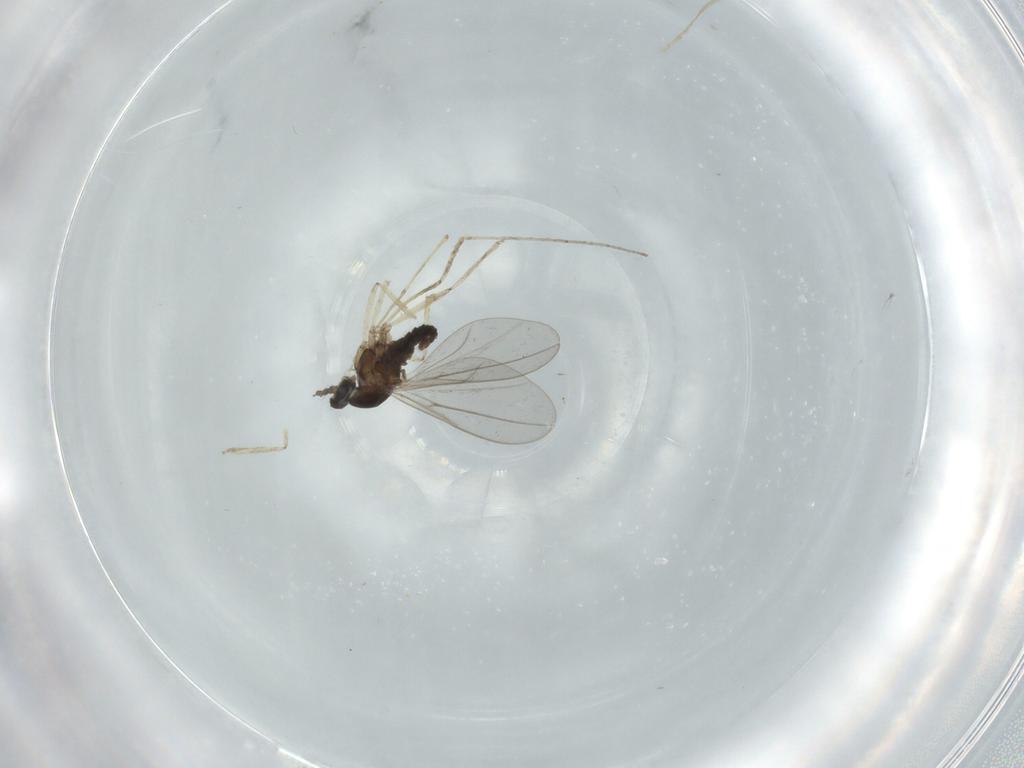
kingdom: Animalia
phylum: Arthropoda
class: Insecta
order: Diptera
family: Cecidomyiidae
